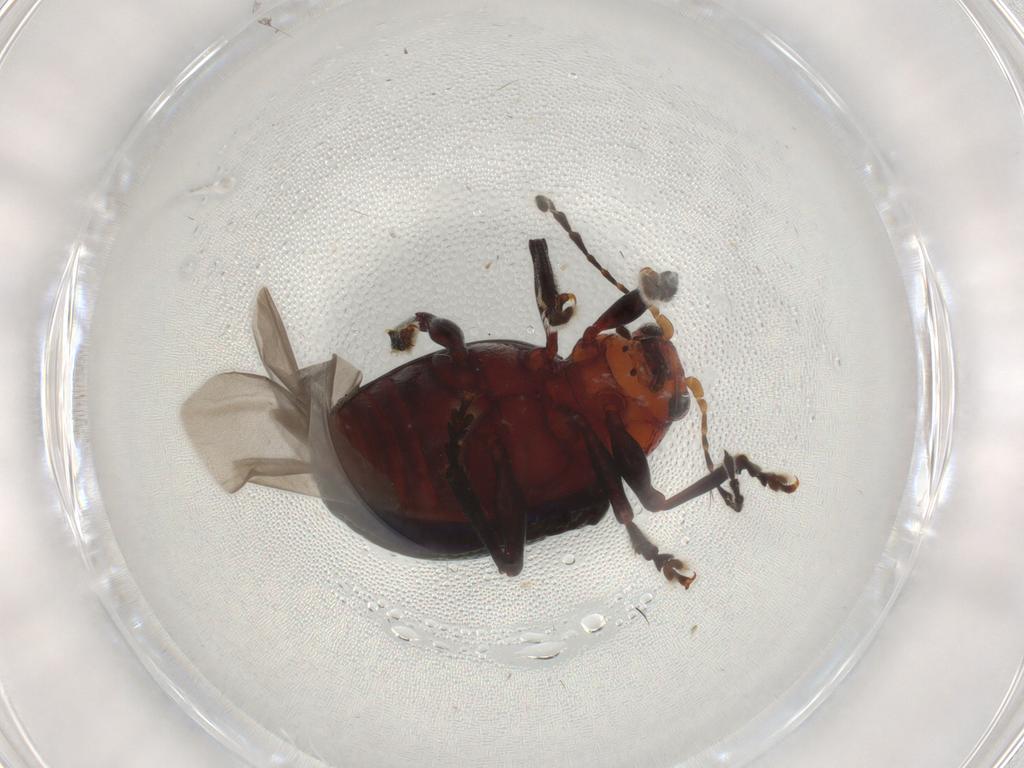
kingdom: Animalia
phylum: Arthropoda
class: Insecta
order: Coleoptera
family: Chrysomelidae
